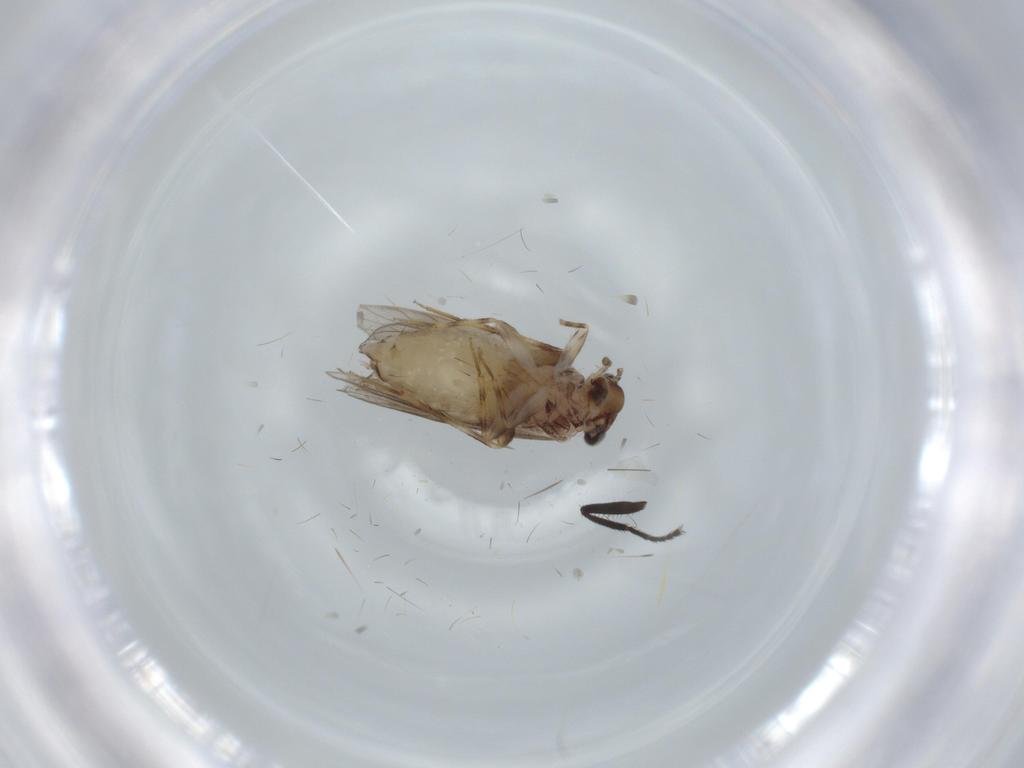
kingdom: Animalia
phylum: Arthropoda
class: Insecta
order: Psocodea
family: Lepidopsocidae
